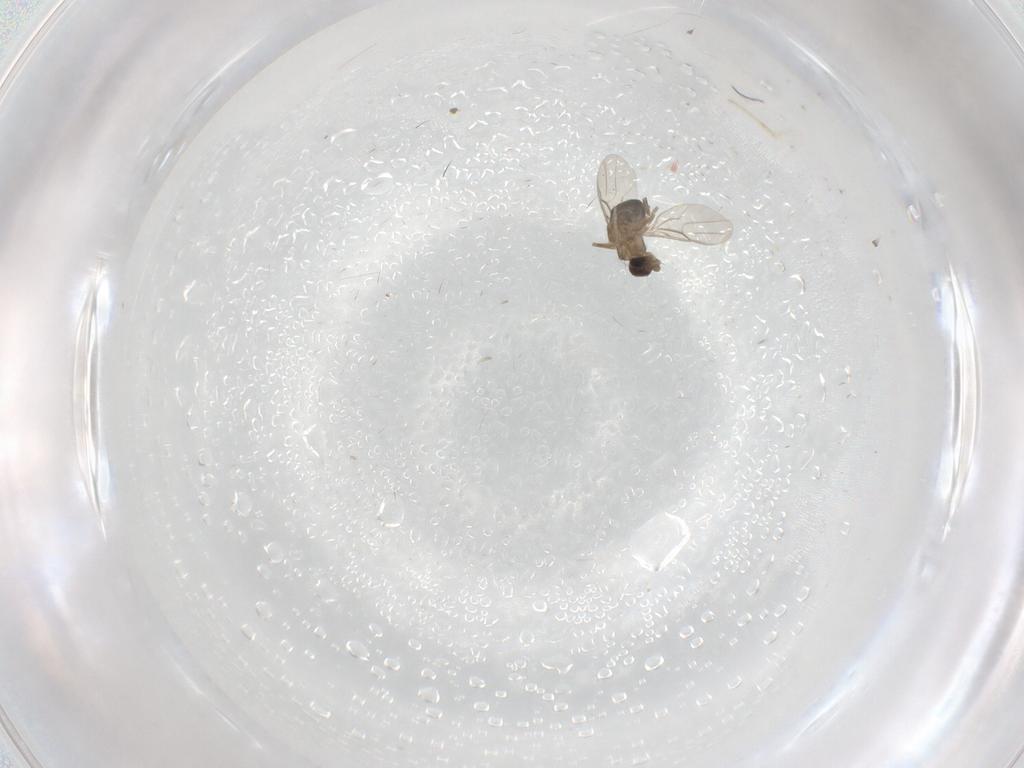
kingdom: Animalia
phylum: Arthropoda
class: Insecta
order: Diptera
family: Phoridae
